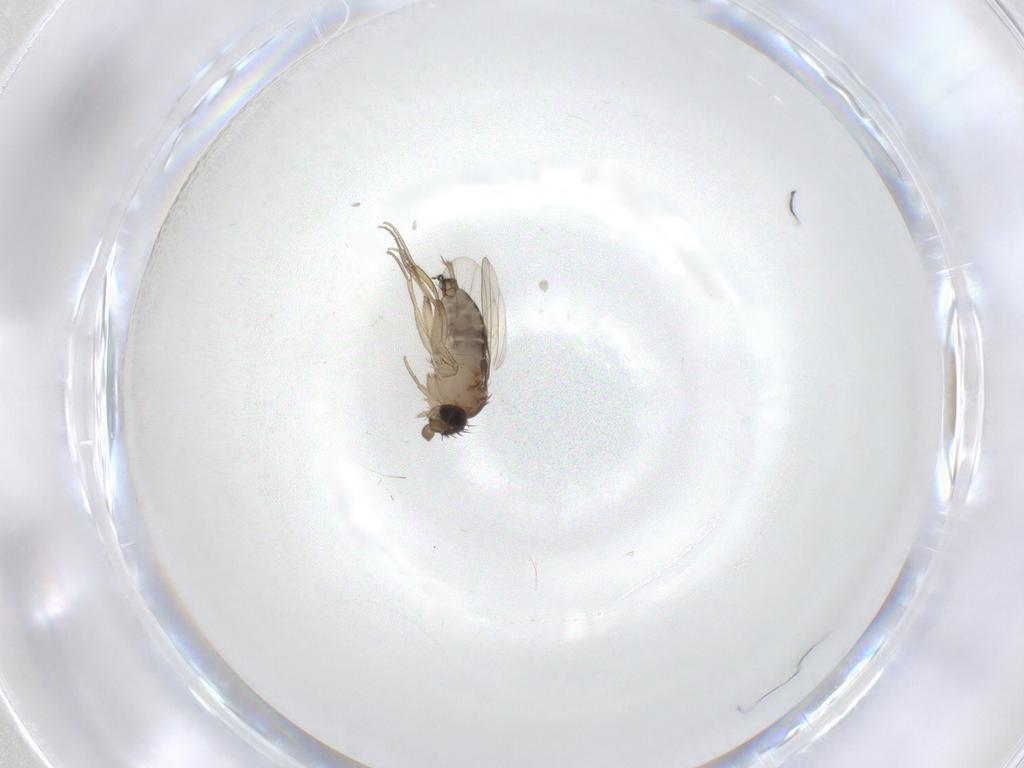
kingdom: Animalia
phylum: Arthropoda
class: Insecta
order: Diptera
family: Phoridae
